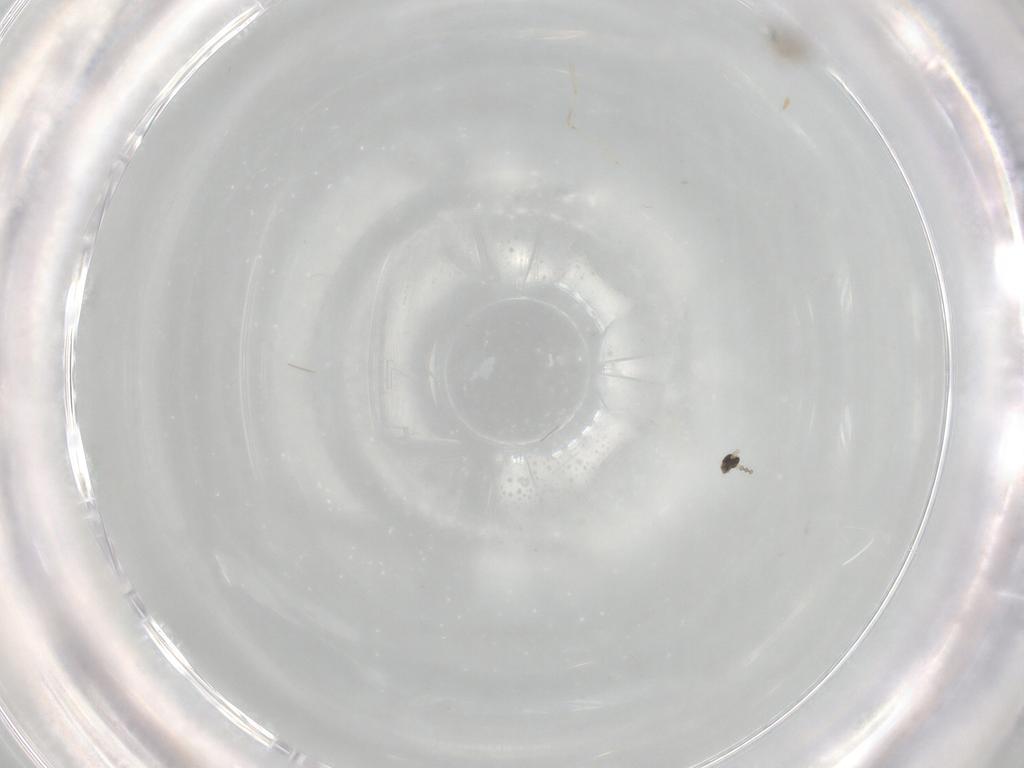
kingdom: Animalia
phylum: Arthropoda
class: Insecta
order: Diptera
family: Cecidomyiidae
